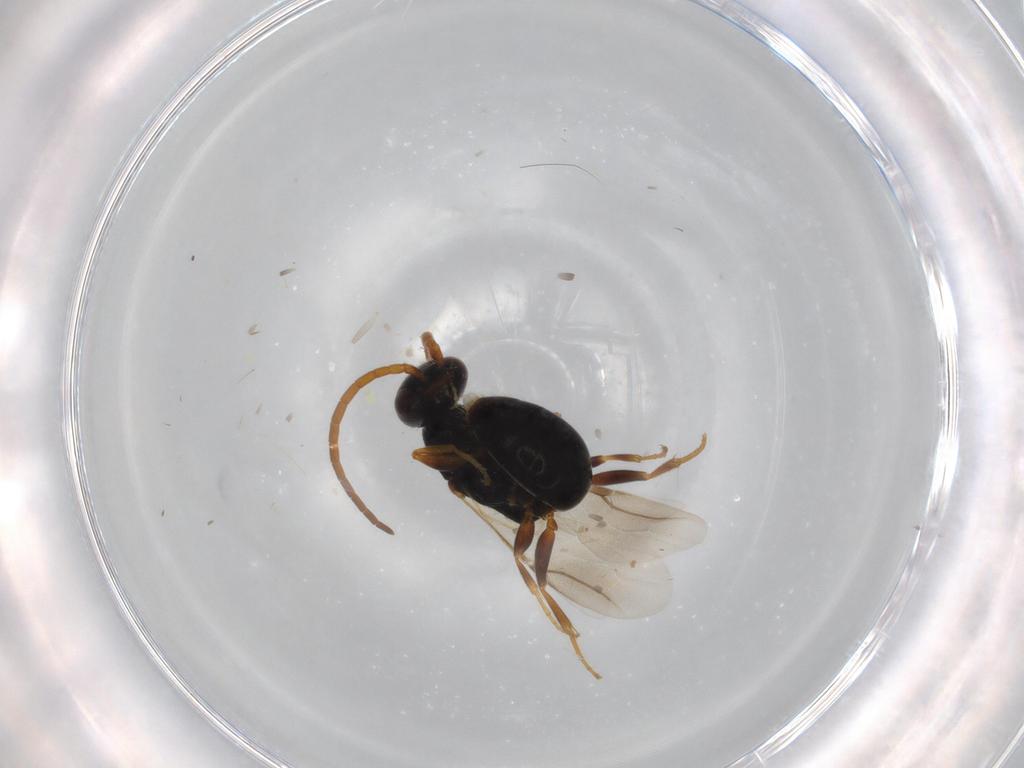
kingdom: Animalia
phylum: Arthropoda
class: Insecta
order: Hymenoptera
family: Bethylidae
